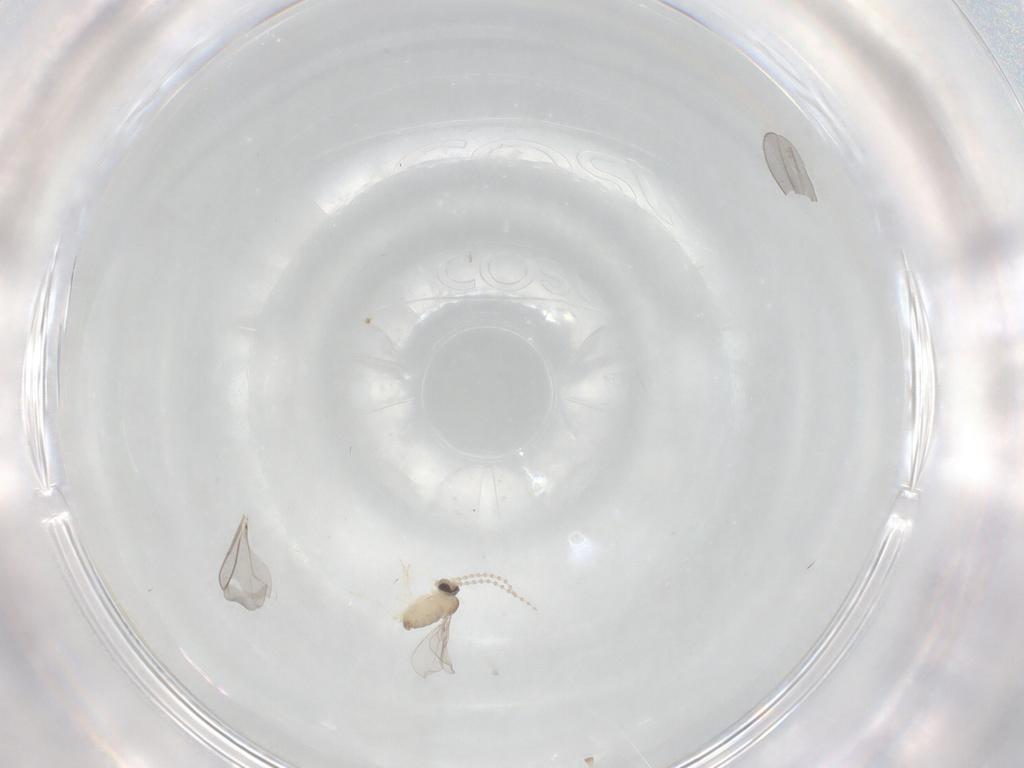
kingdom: Animalia
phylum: Arthropoda
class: Insecta
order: Diptera
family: Cecidomyiidae
